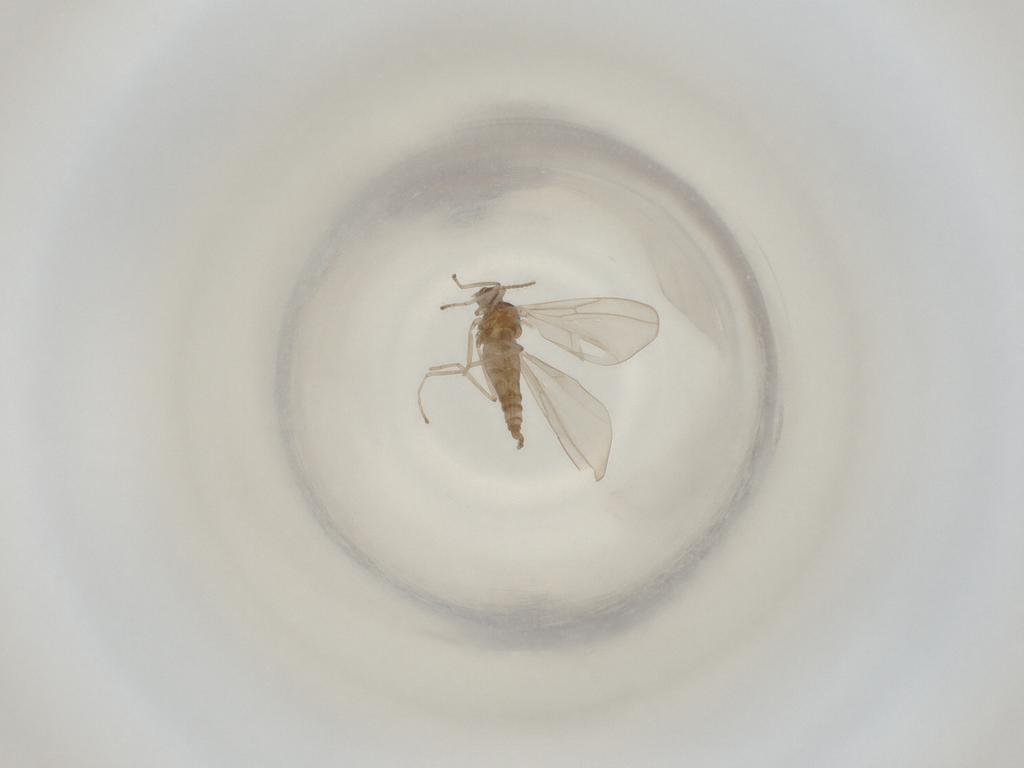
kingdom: Animalia
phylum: Arthropoda
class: Insecta
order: Diptera
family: Cecidomyiidae
